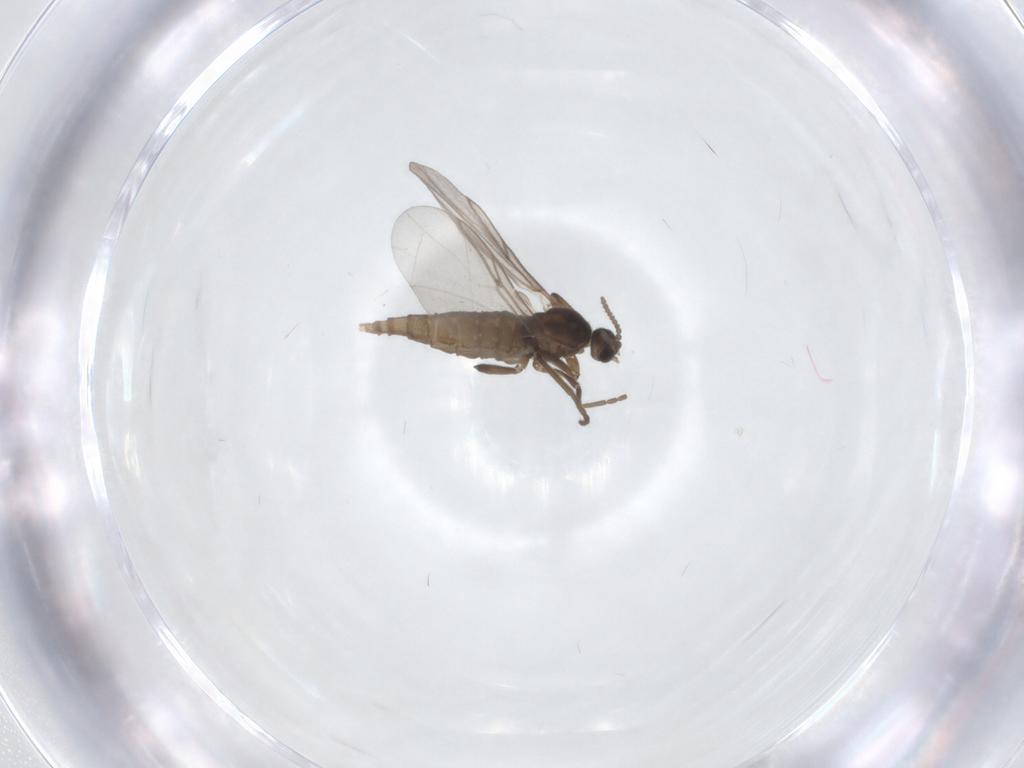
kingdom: Animalia
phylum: Arthropoda
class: Insecta
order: Diptera
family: Cecidomyiidae
